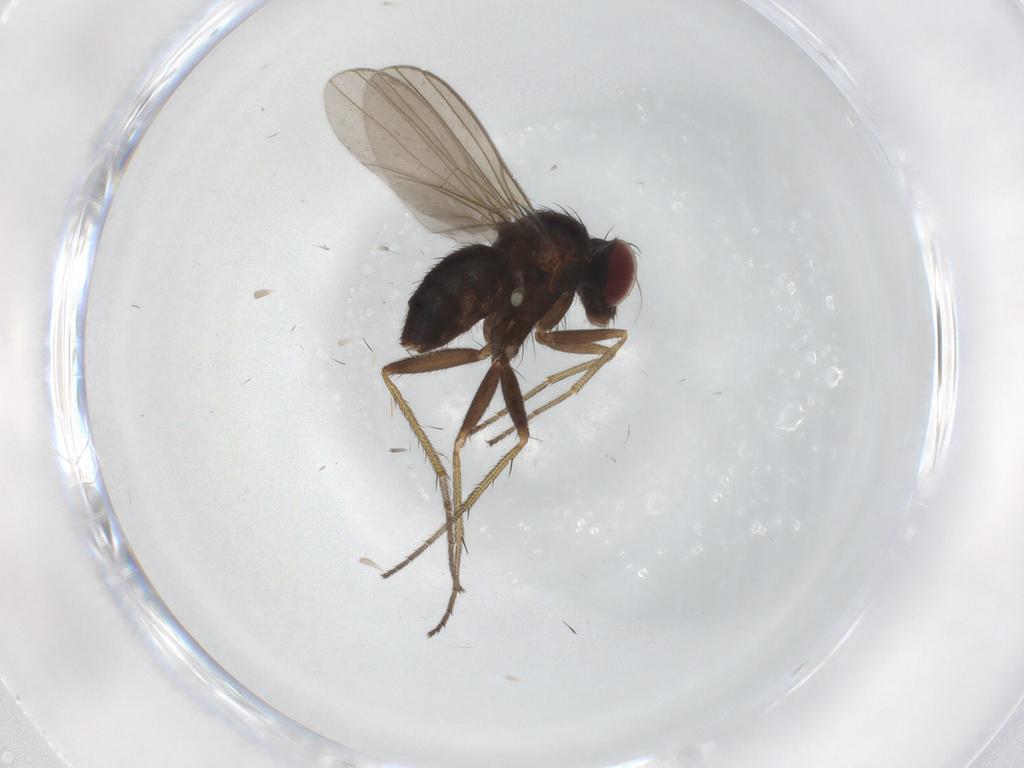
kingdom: Animalia
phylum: Arthropoda
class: Insecta
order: Diptera
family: Dolichopodidae
